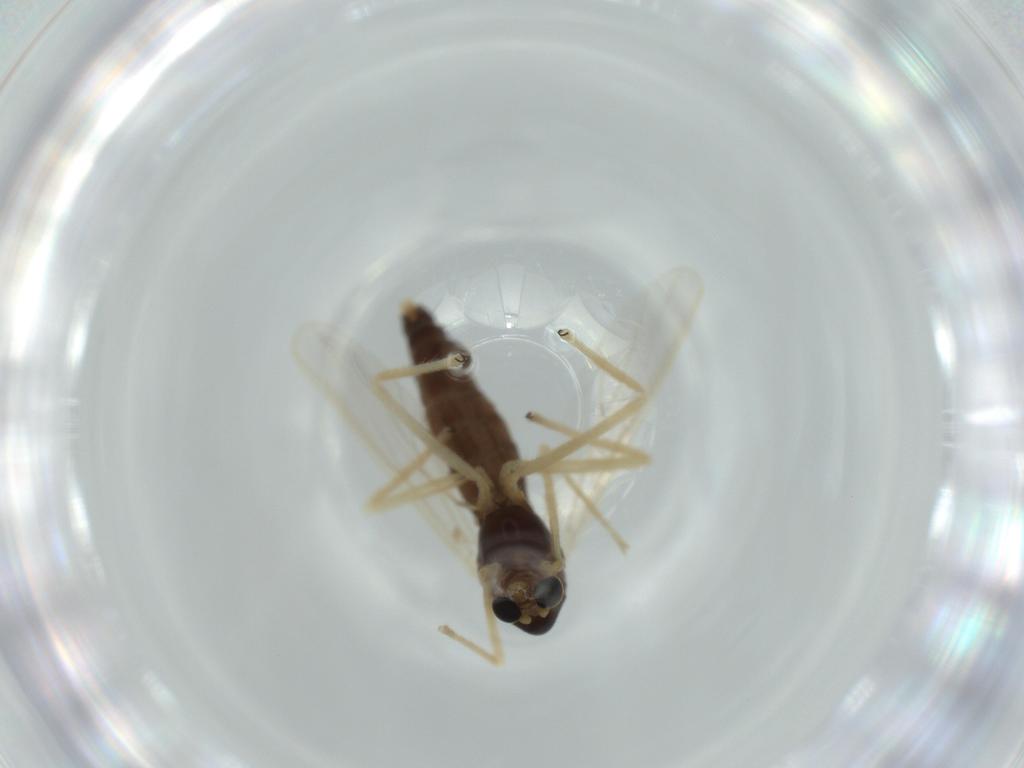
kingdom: Animalia
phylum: Arthropoda
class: Insecta
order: Diptera
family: Chironomidae
